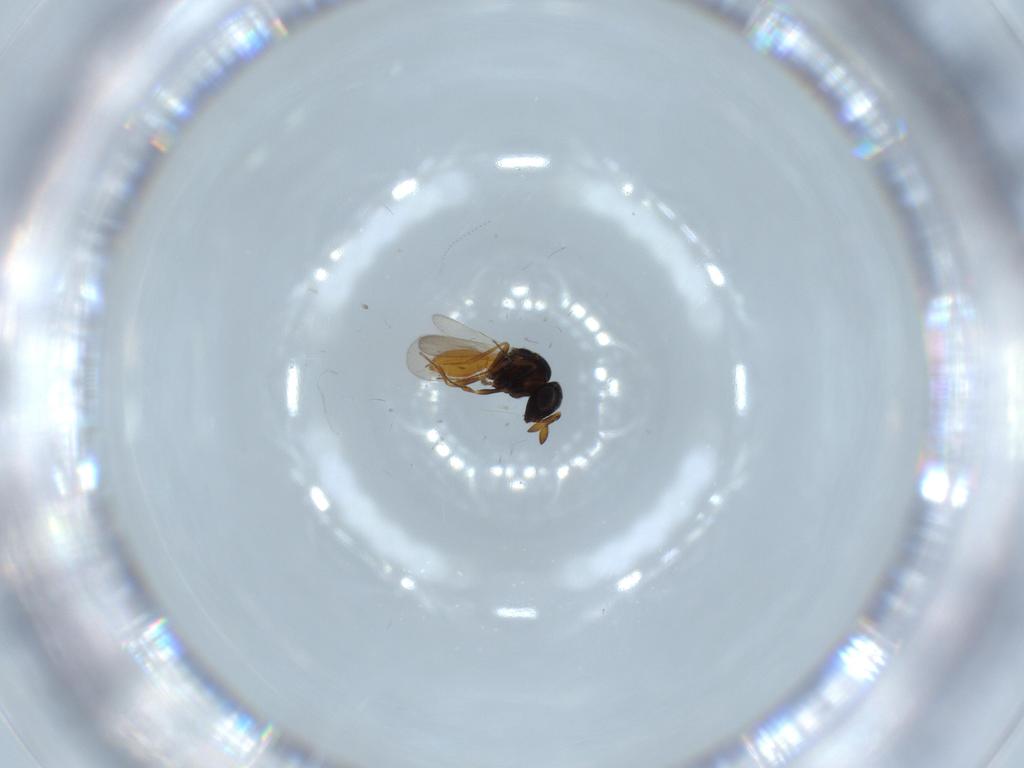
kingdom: Animalia
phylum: Arthropoda
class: Insecta
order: Hymenoptera
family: Scelionidae
